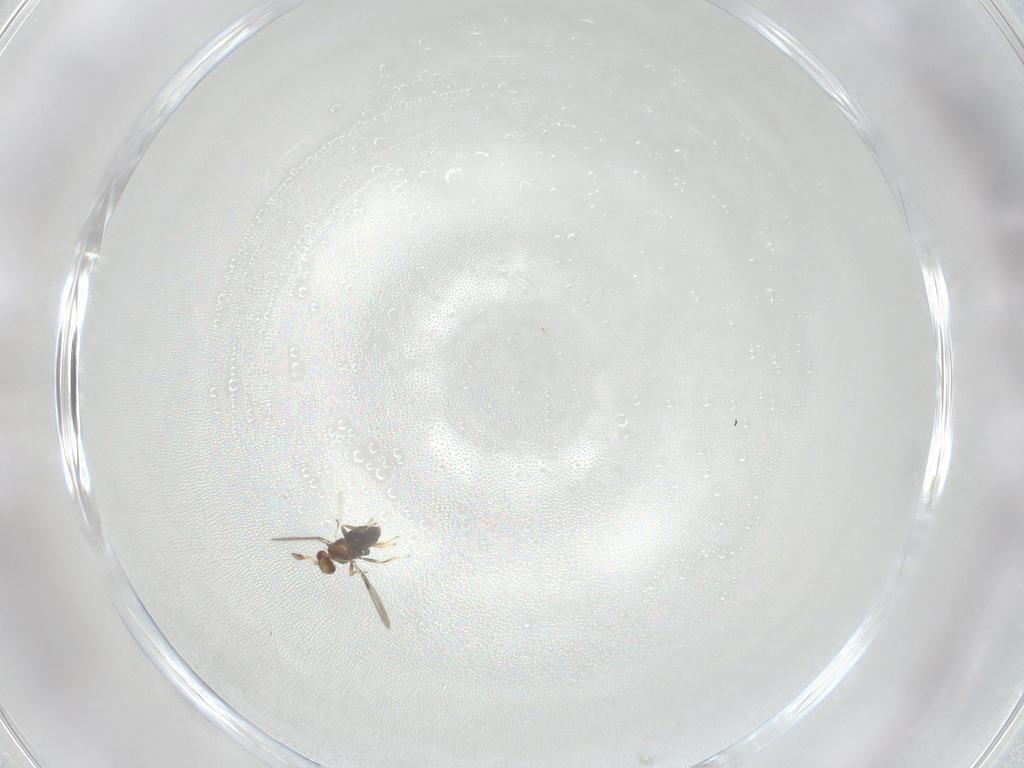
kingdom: Animalia
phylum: Arthropoda
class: Insecta
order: Hymenoptera
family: Trichogrammatidae
